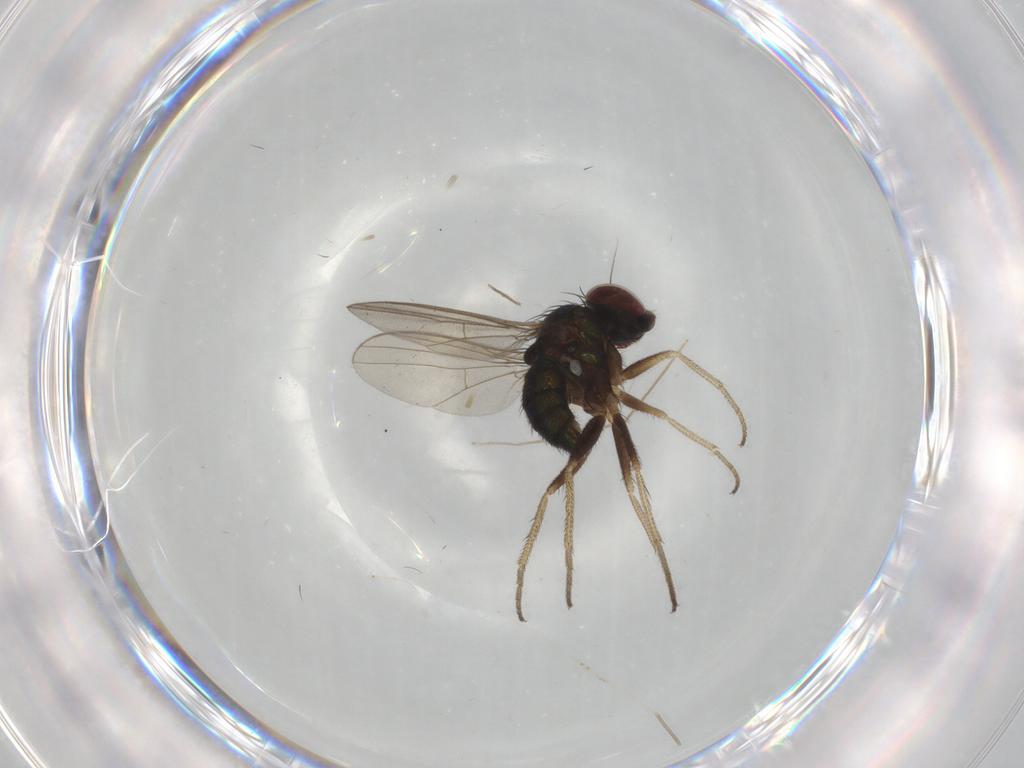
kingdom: Animalia
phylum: Arthropoda
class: Insecta
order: Diptera
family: Chironomidae
